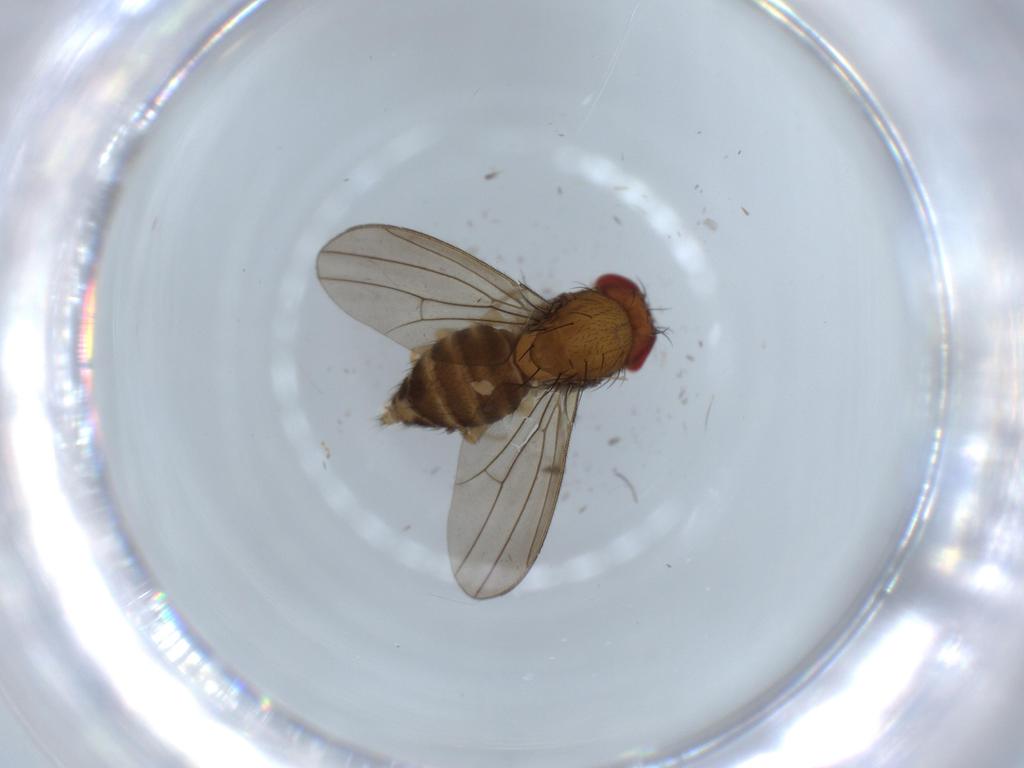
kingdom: Animalia
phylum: Arthropoda
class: Insecta
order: Diptera
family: Drosophilidae
